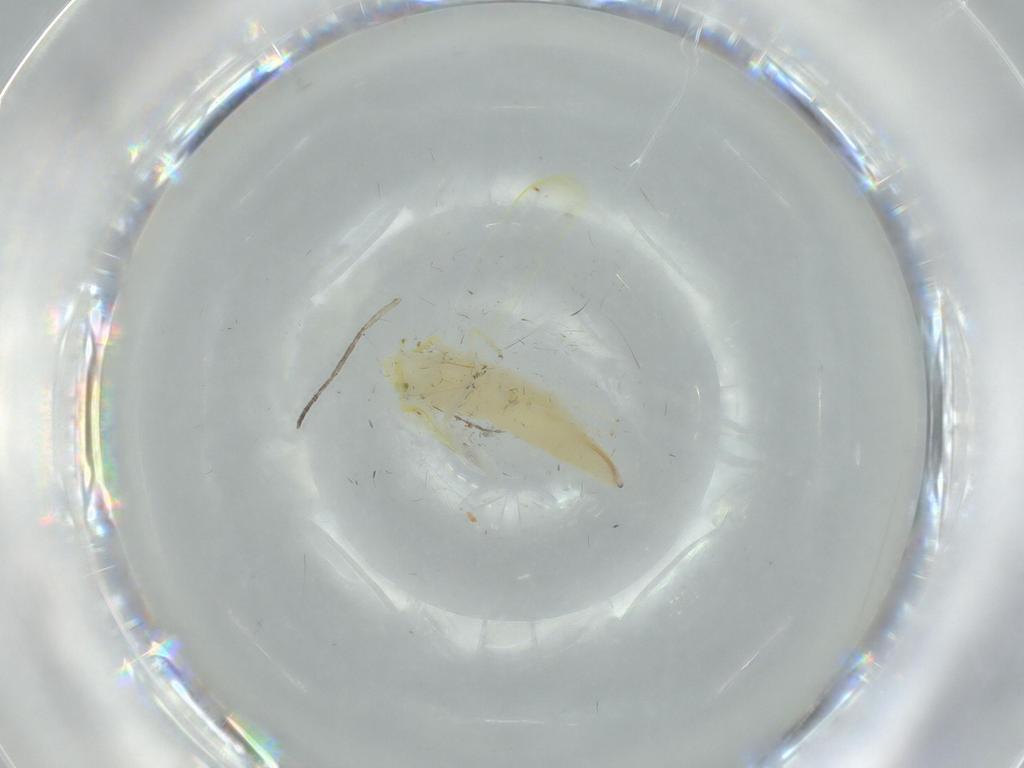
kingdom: Animalia
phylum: Arthropoda
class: Insecta
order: Hemiptera
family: Cicadellidae
